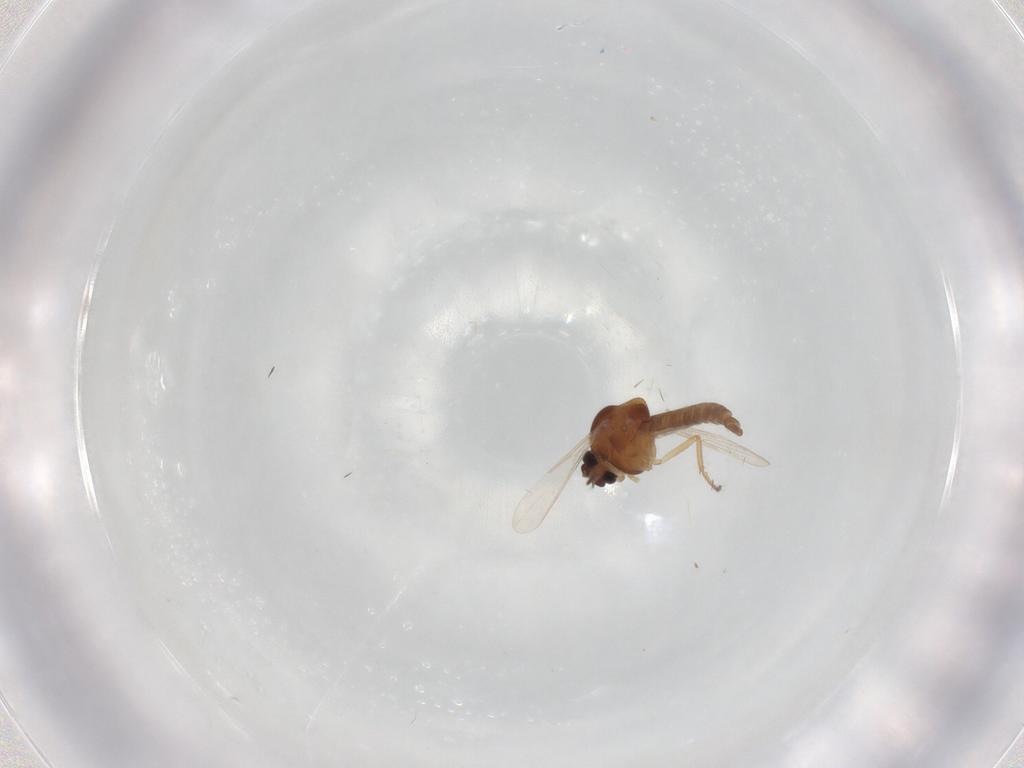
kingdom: Animalia
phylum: Arthropoda
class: Insecta
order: Diptera
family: Ceratopogonidae
